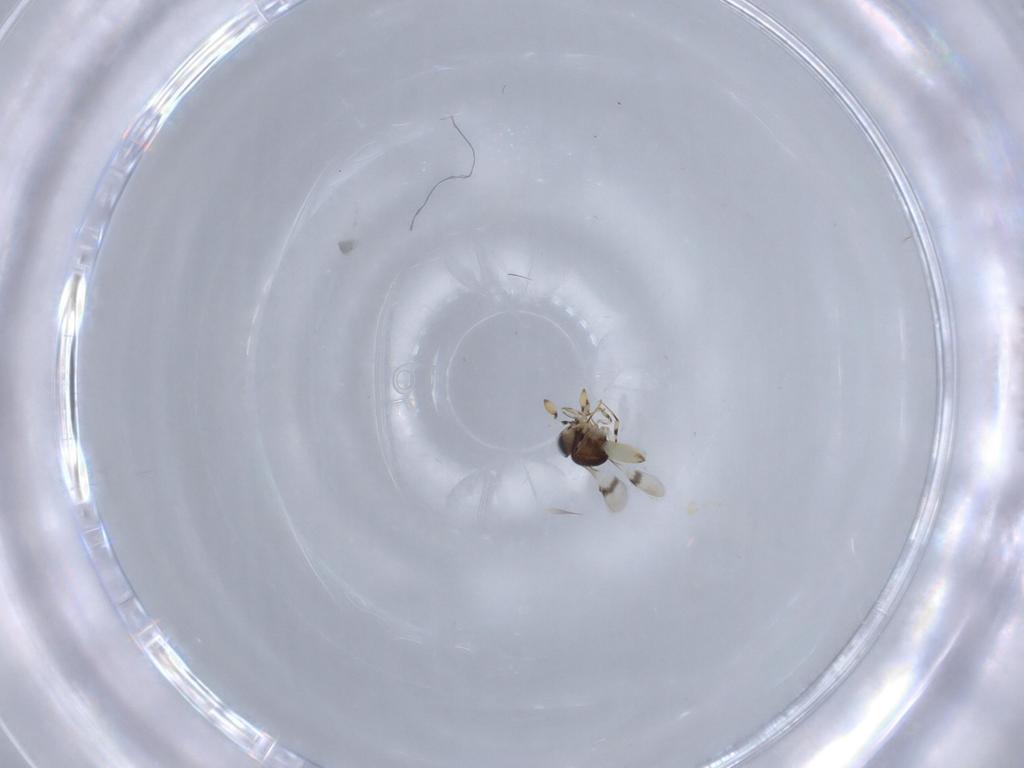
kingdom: Animalia
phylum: Arthropoda
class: Insecta
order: Hymenoptera
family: Scelionidae
